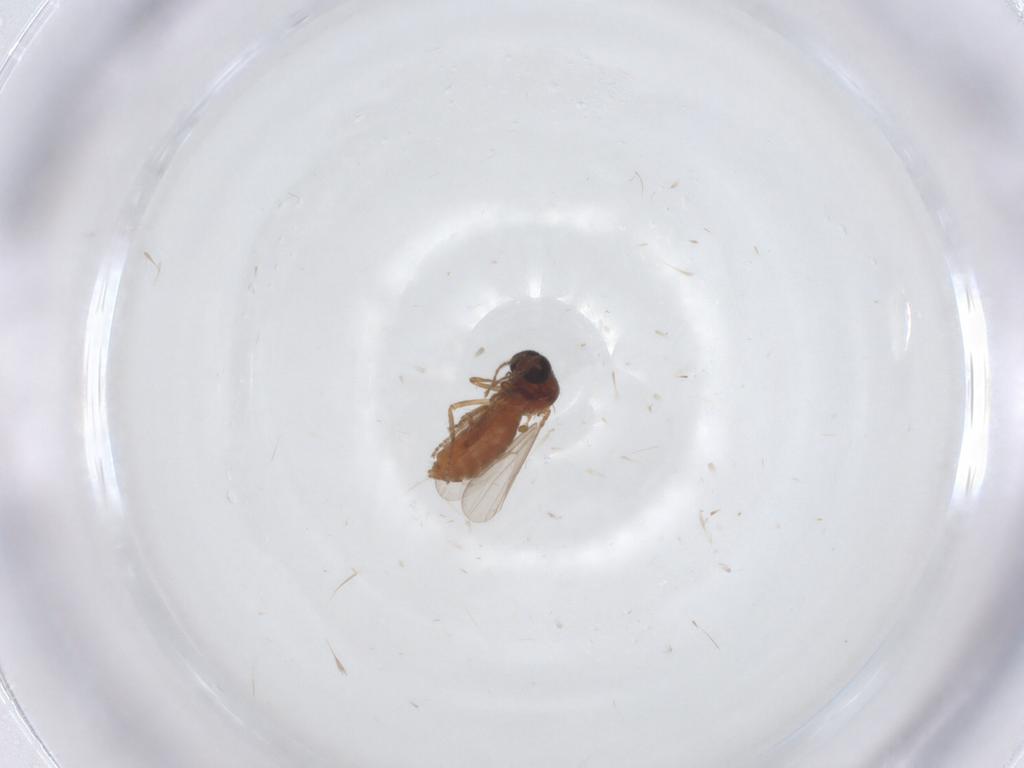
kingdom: Animalia
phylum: Arthropoda
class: Insecta
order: Diptera
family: Ceratopogonidae
